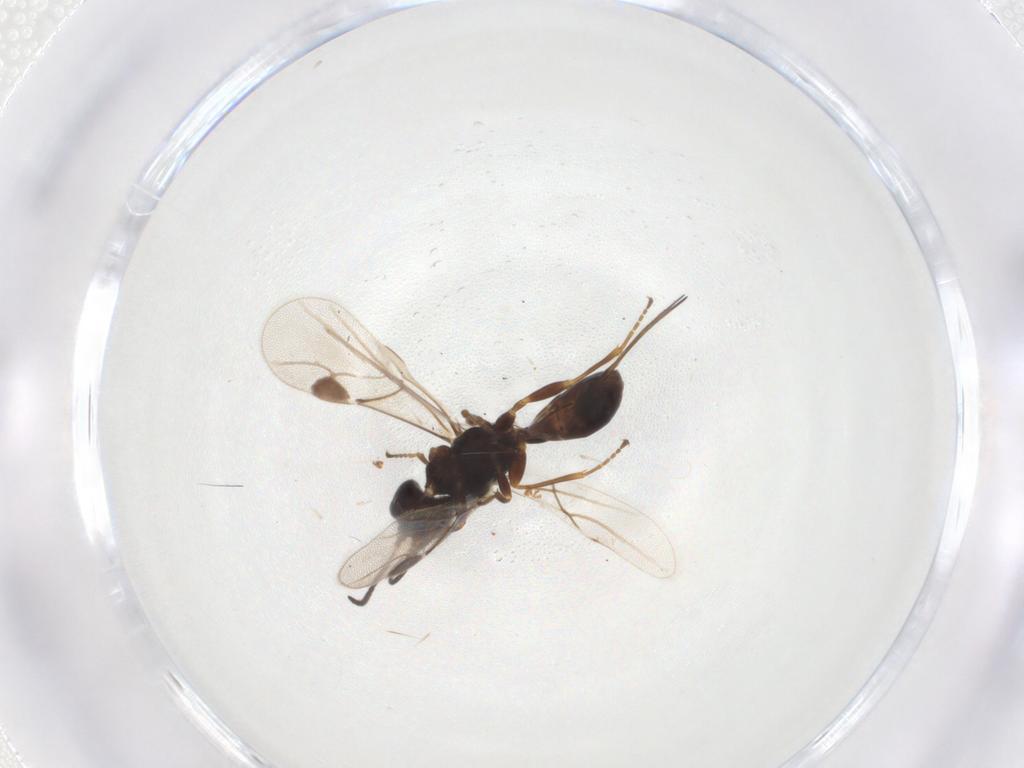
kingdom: Animalia
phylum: Arthropoda
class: Insecta
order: Hymenoptera
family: Braconidae
